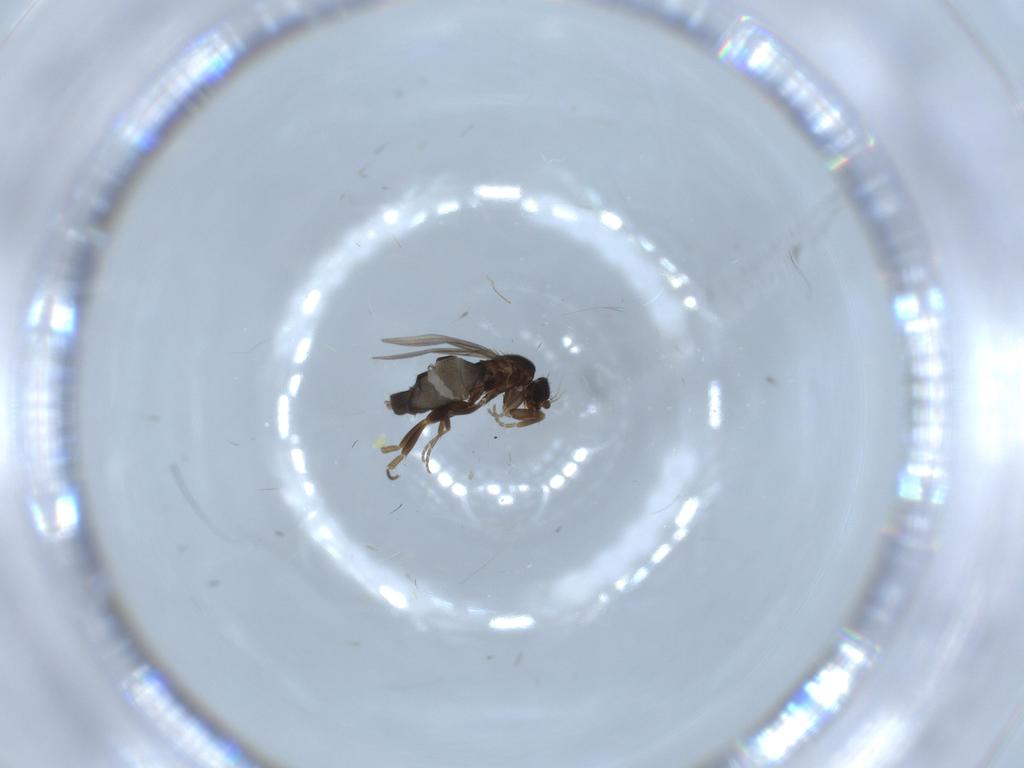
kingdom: Animalia
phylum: Arthropoda
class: Insecta
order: Diptera
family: Phoridae
